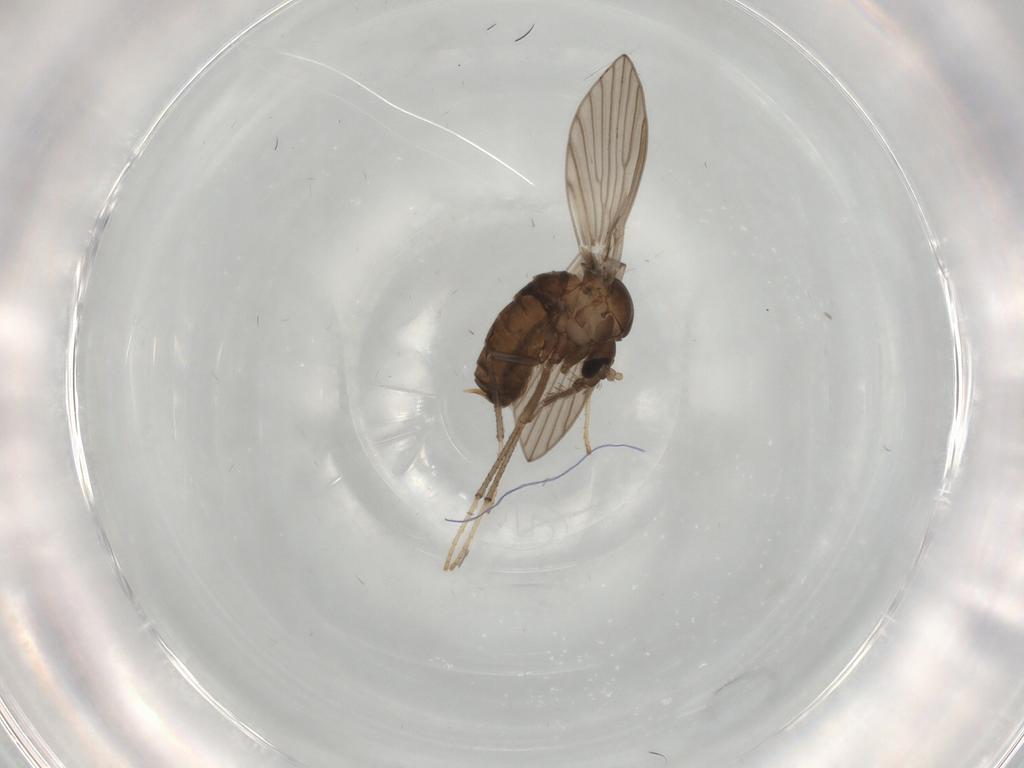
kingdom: Animalia
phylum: Arthropoda
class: Insecta
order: Diptera
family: Psychodidae
